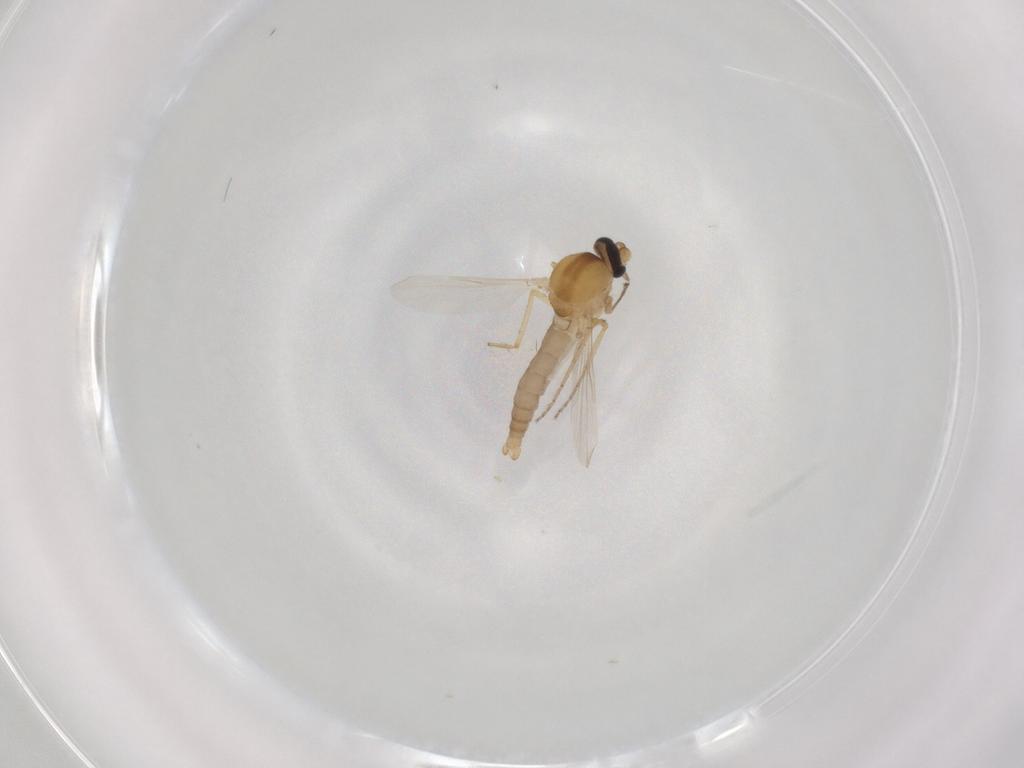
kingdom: Animalia
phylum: Arthropoda
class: Insecta
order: Diptera
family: Ceratopogonidae
